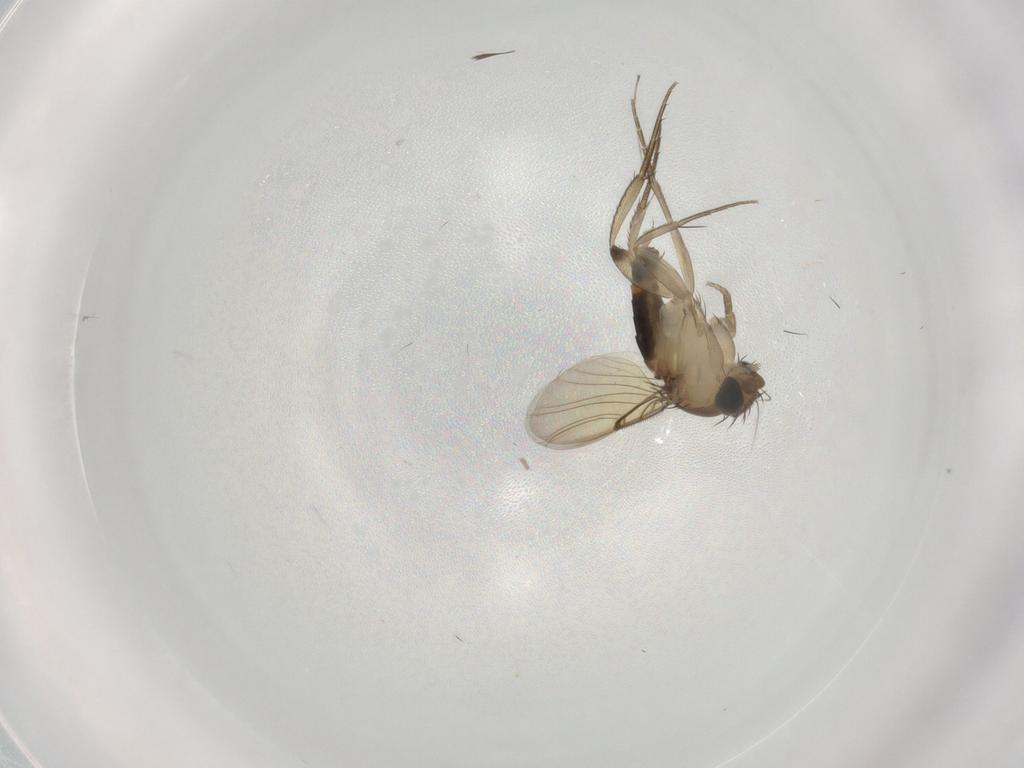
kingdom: Animalia
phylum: Arthropoda
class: Insecta
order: Diptera
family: Phoridae
